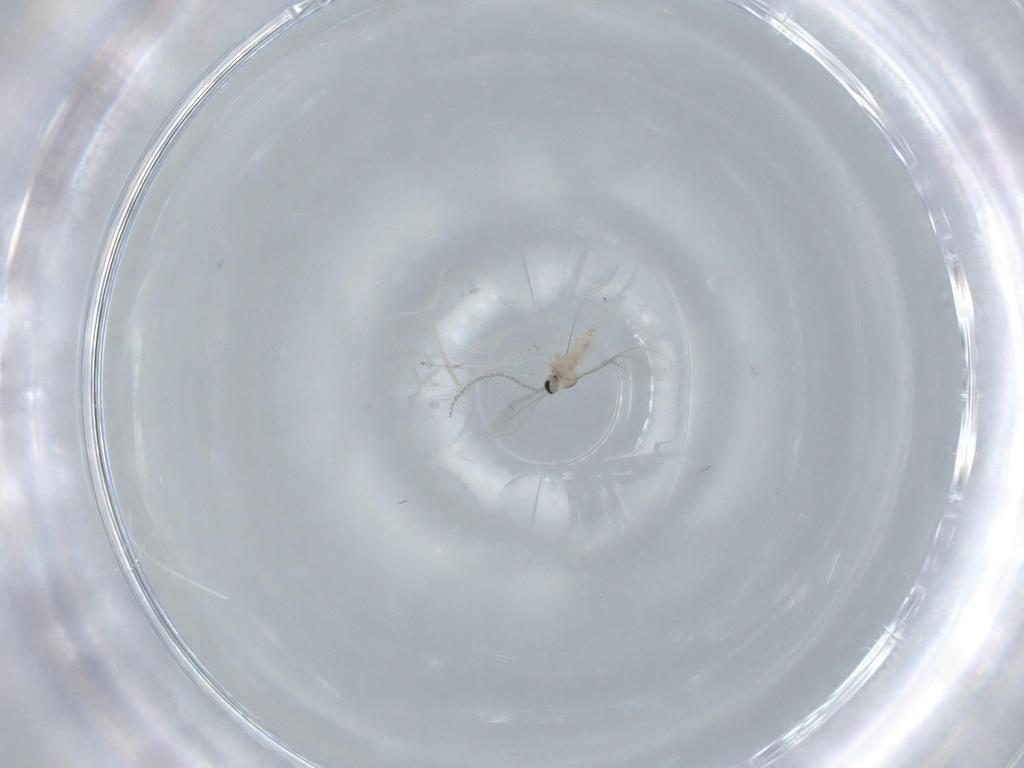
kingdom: Animalia
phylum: Arthropoda
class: Insecta
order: Diptera
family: Cecidomyiidae
